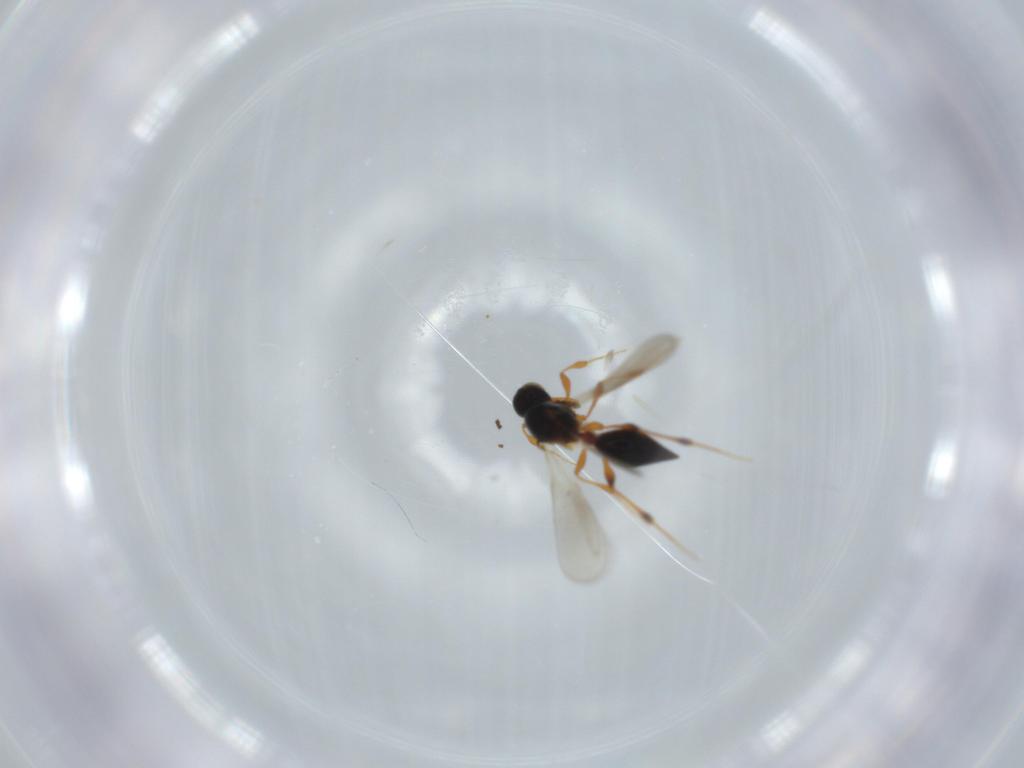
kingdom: Animalia
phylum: Arthropoda
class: Insecta
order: Hymenoptera
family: Platygastridae
